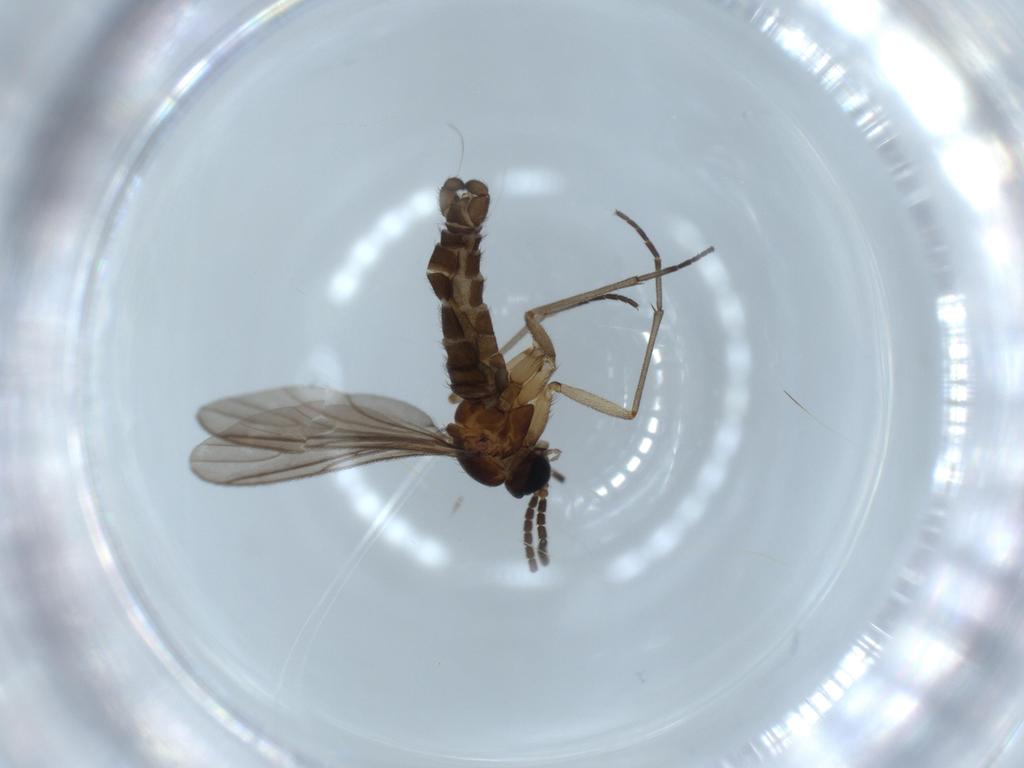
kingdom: Animalia
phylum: Arthropoda
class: Insecta
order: Diptera
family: Sciaridae
